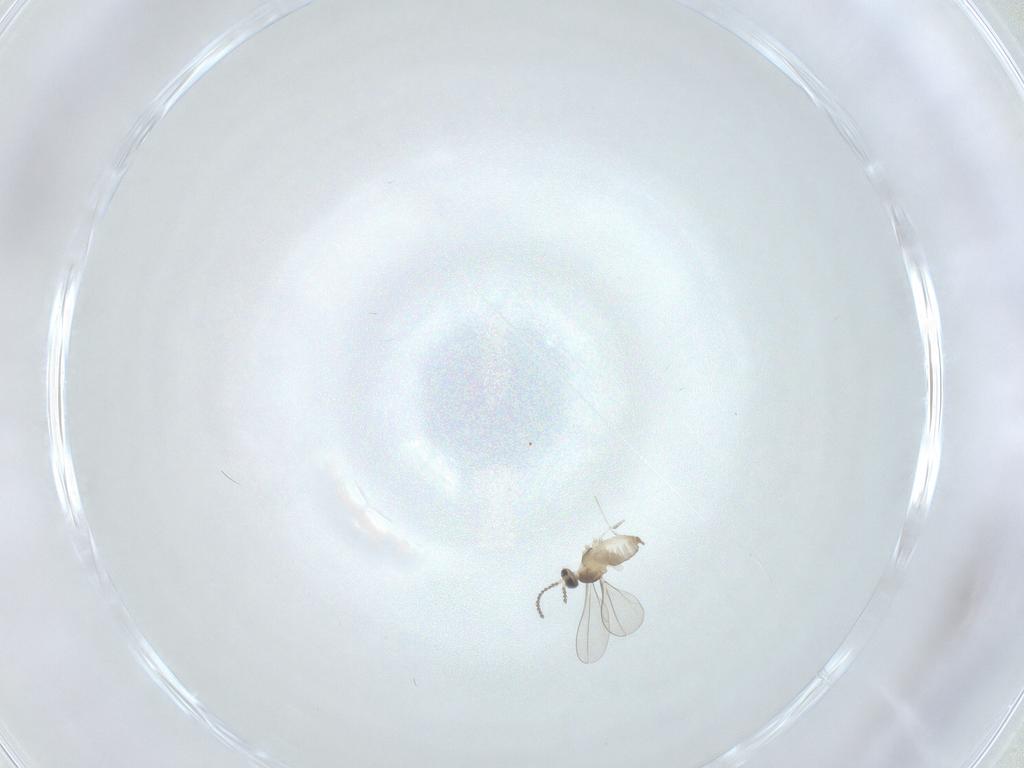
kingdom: Animalia
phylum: Arthropoda
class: Insecta
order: Diptera
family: Cecidomyiidae
